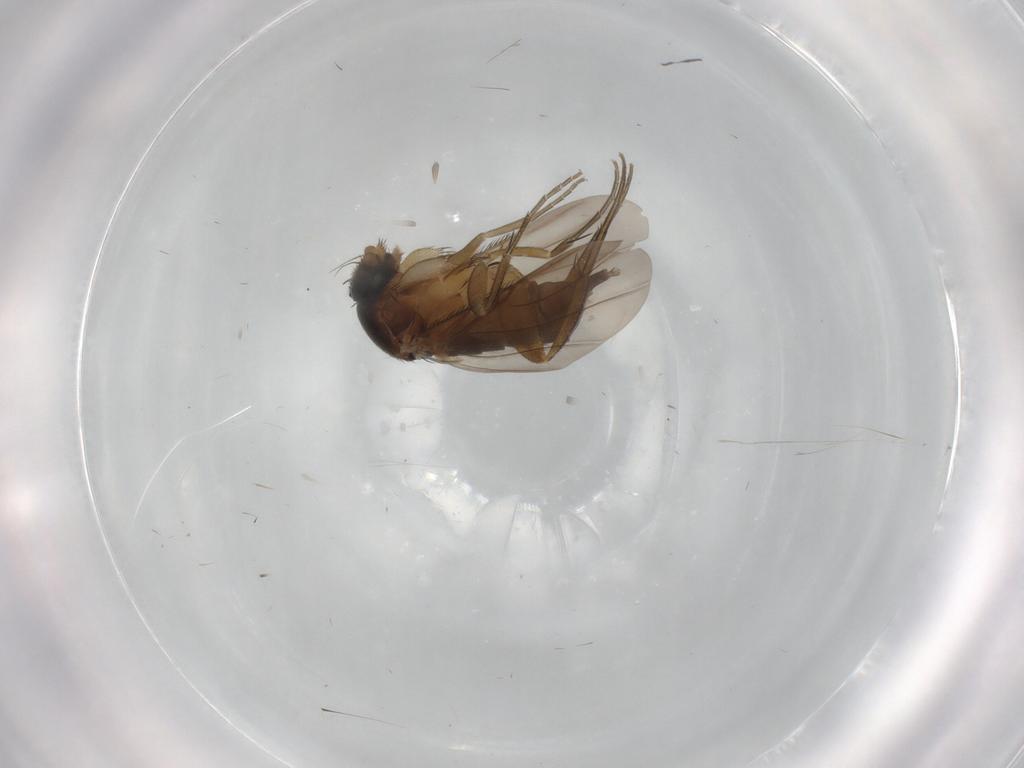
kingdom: Animalia
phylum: Arthropoda
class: Insecta
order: Diptera
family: Phoridae
